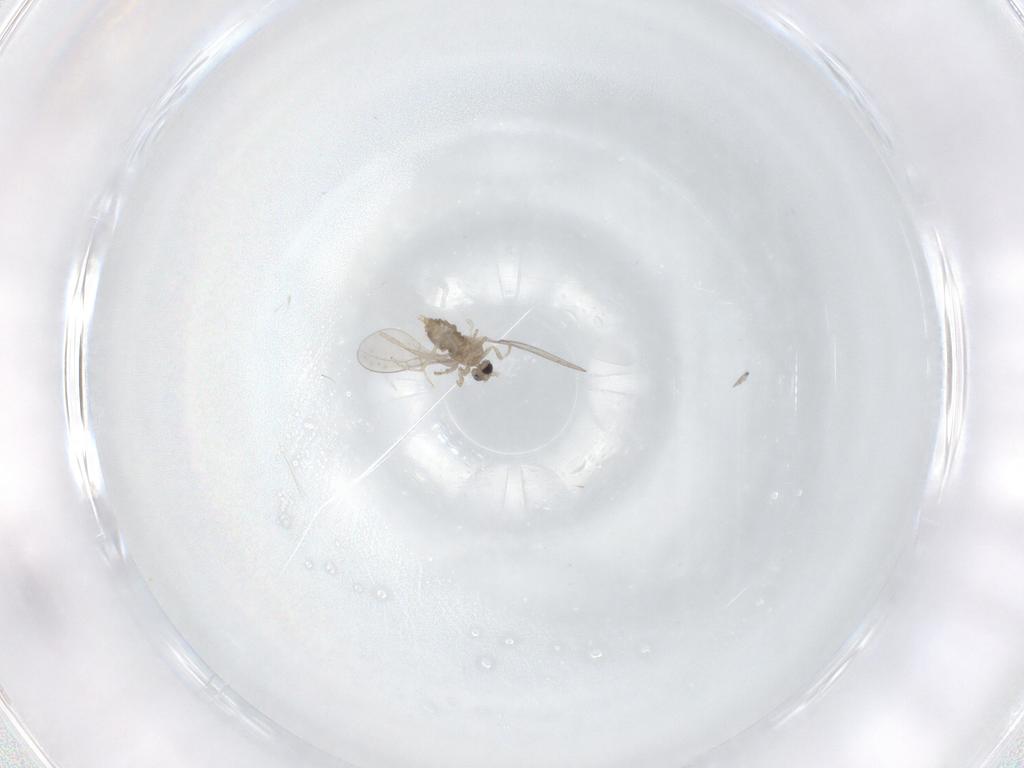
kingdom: Animalia
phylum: Arthropoda
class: Insecta
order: Diptera
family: Cecidomyiidae
